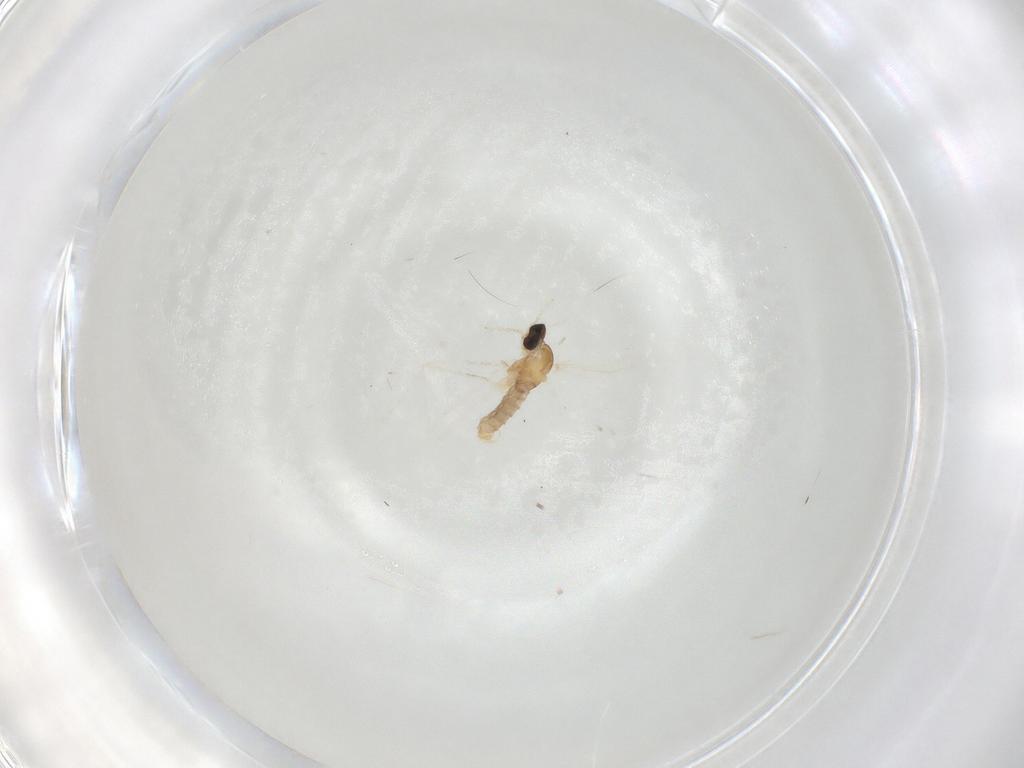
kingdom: Animalia
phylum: Arthropoda
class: Insecta
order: Diptera
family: Cecidomyiidae
